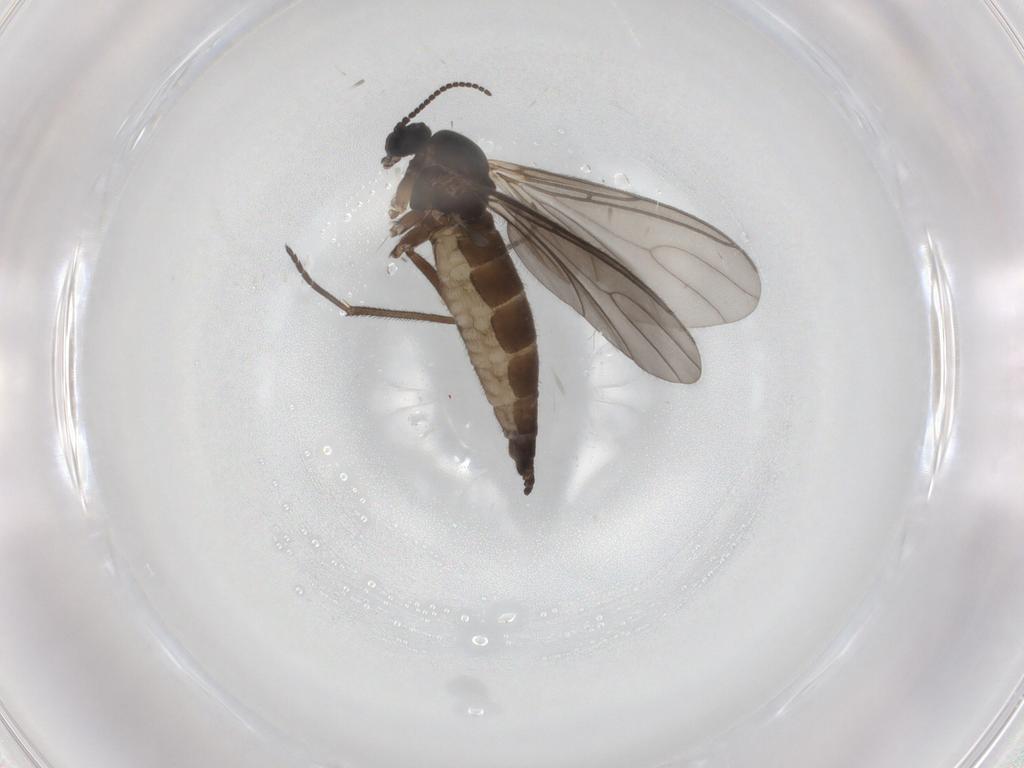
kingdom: Animalia
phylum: Arthropoda
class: Insecta
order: Diptera
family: Sciaridae
